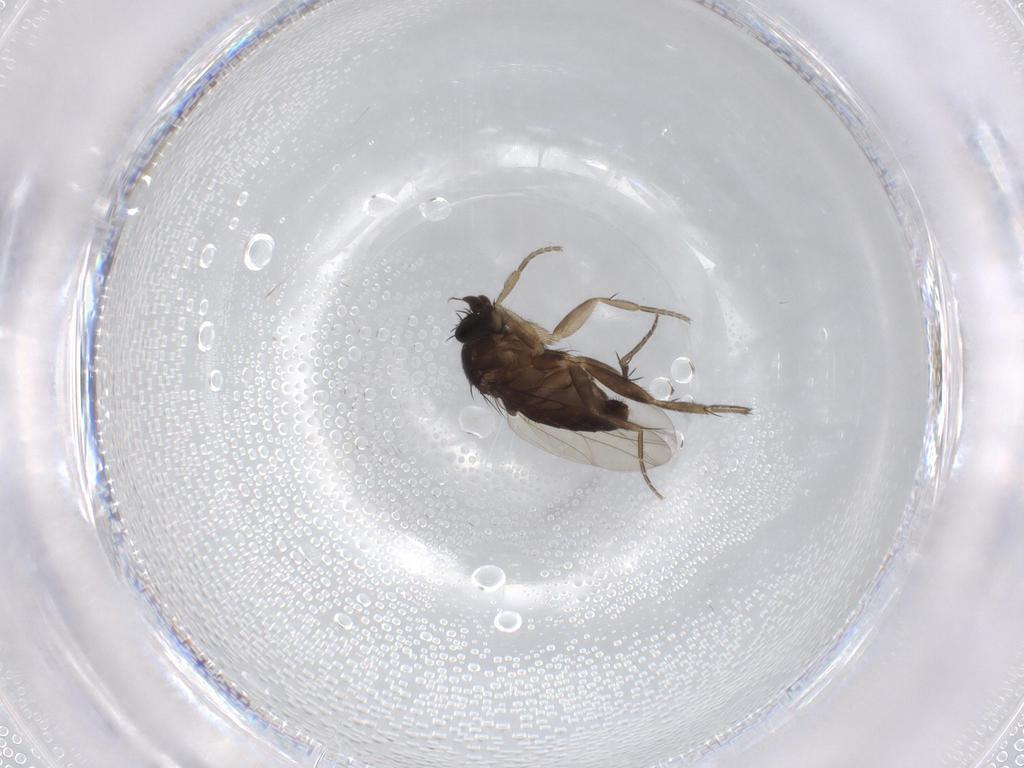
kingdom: Animalia
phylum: Arthropoda
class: Insecta
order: Diptera
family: Phoridae
